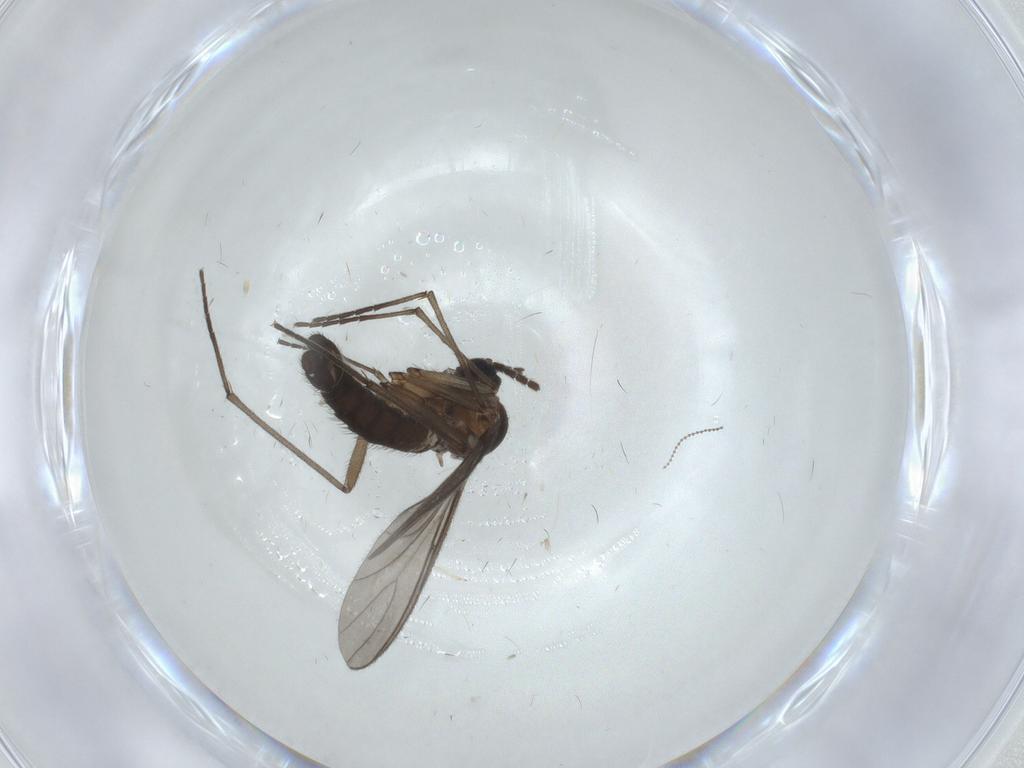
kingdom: Animalia
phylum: Arthropoda
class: Insecta
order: Diptera
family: Sciaridae
